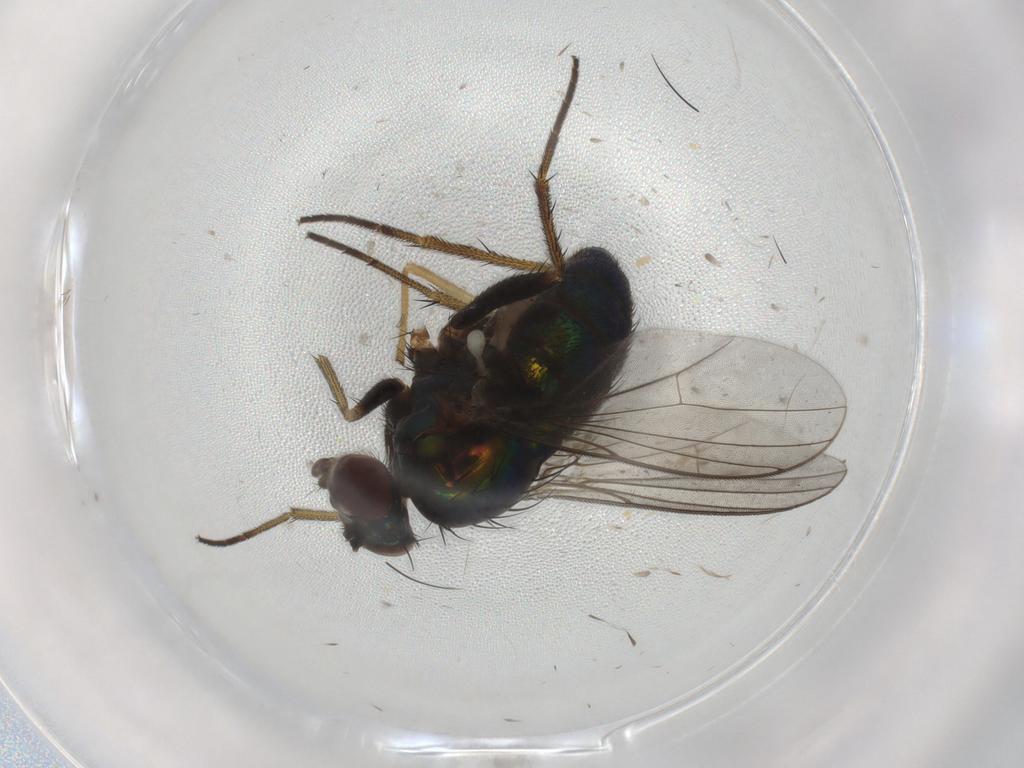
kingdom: Animalia
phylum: Arthropoda
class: Insecta
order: Diptera
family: Dolichopodidae
